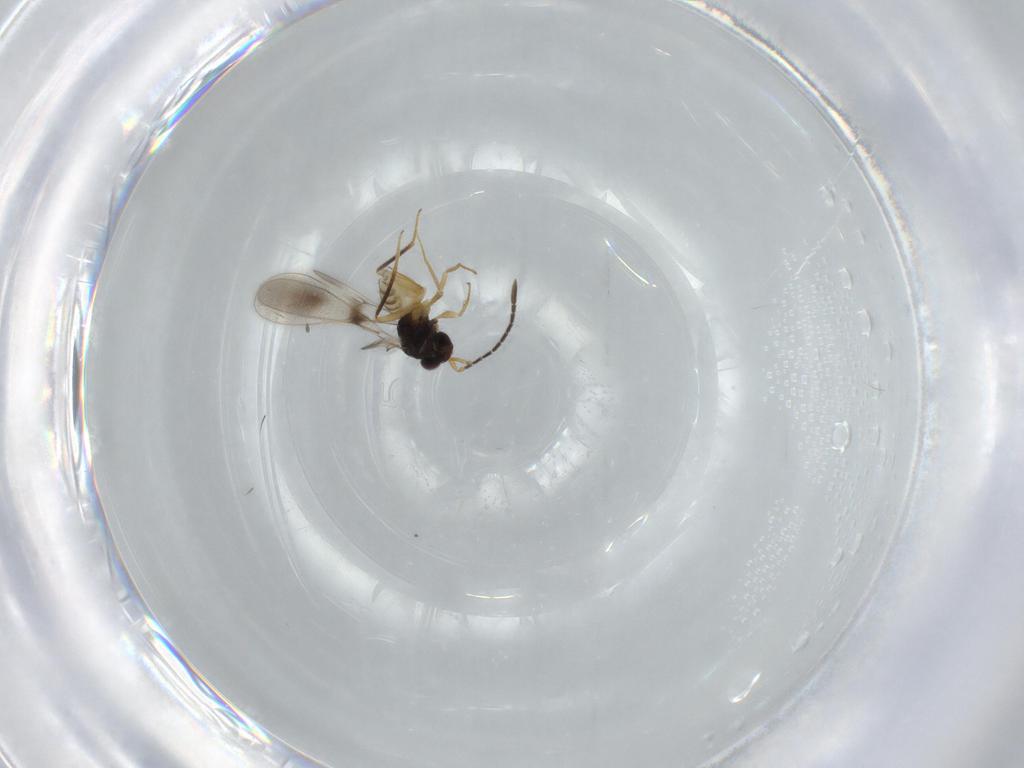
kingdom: Animalia
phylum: Arthropoda
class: Insecta
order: Hymenoptera
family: Mymaridae
